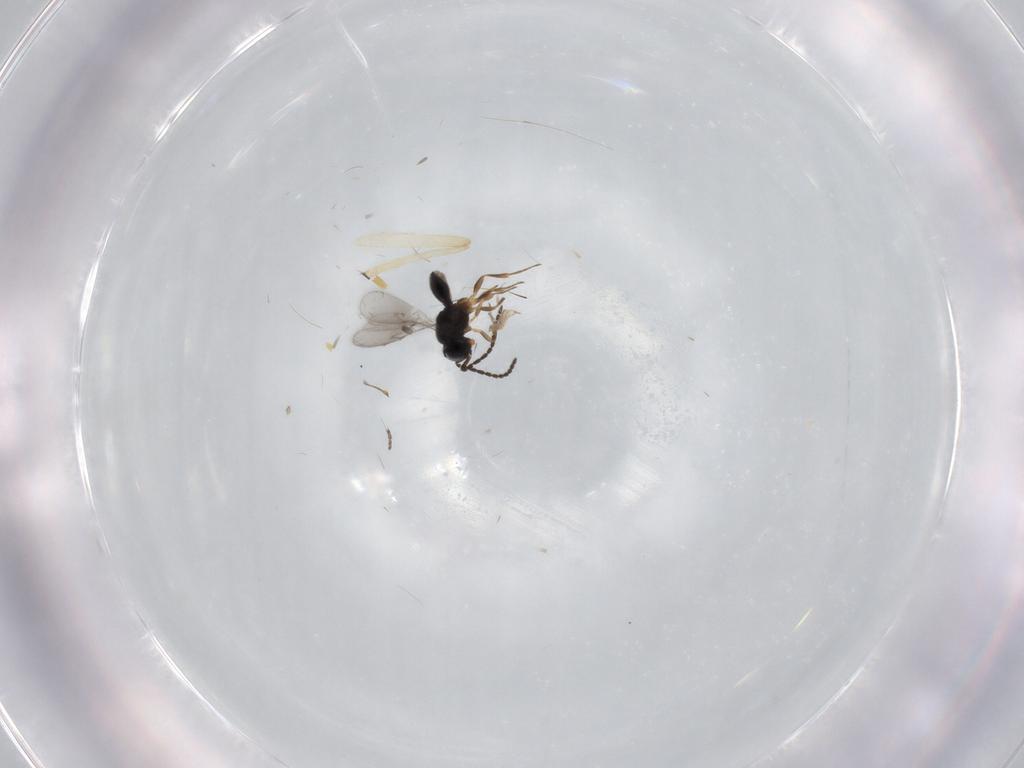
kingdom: Animalia
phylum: Arthropoda
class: Insecta
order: Hymenoptera
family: Scelionidae
